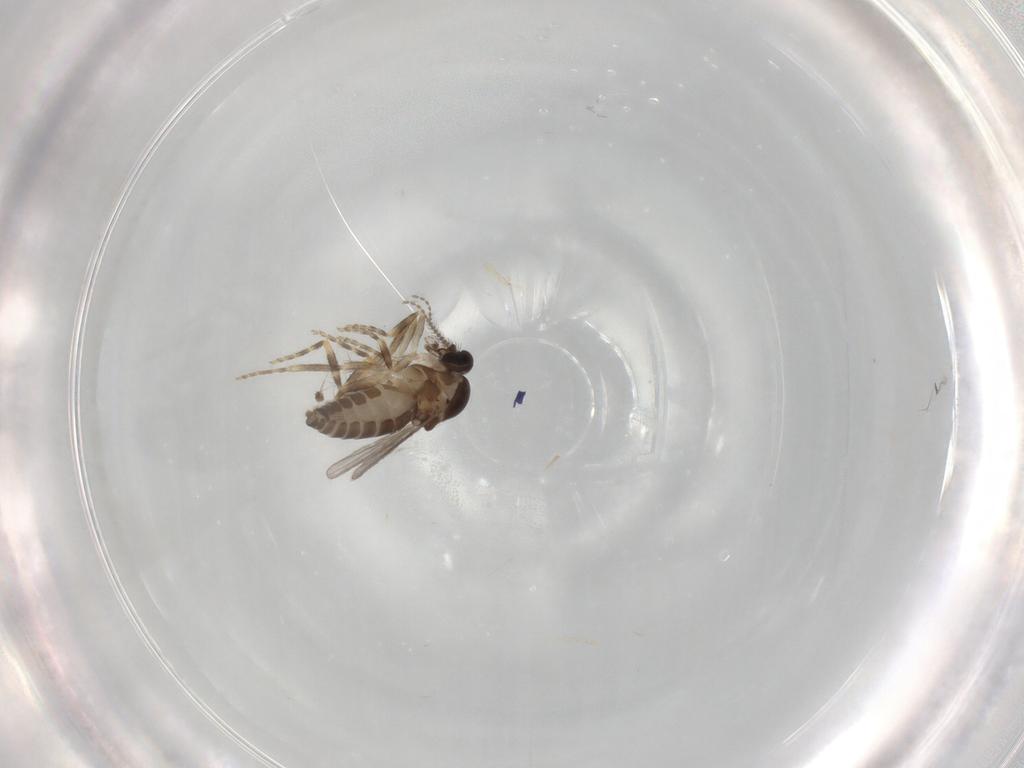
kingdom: Animalia
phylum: Arthropoda
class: Insecta
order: Diptera
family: Ceratopogonidae
